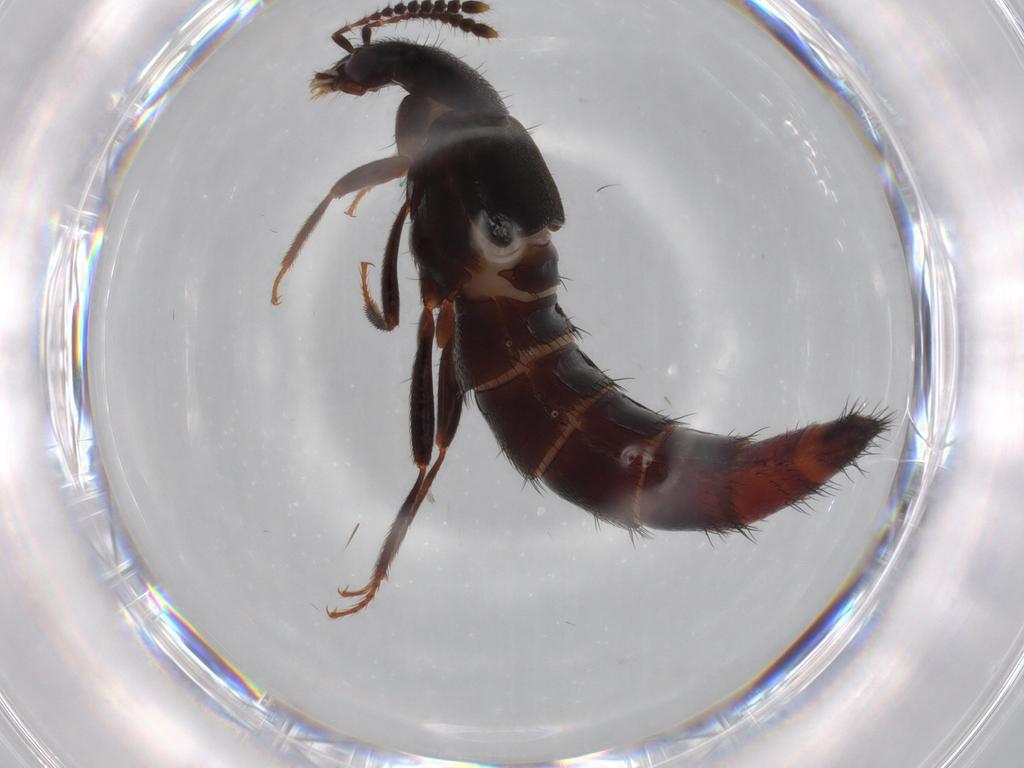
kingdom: Animalia
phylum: Arthropoda
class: Insecta
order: Coleoptera
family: Staphylinidae
